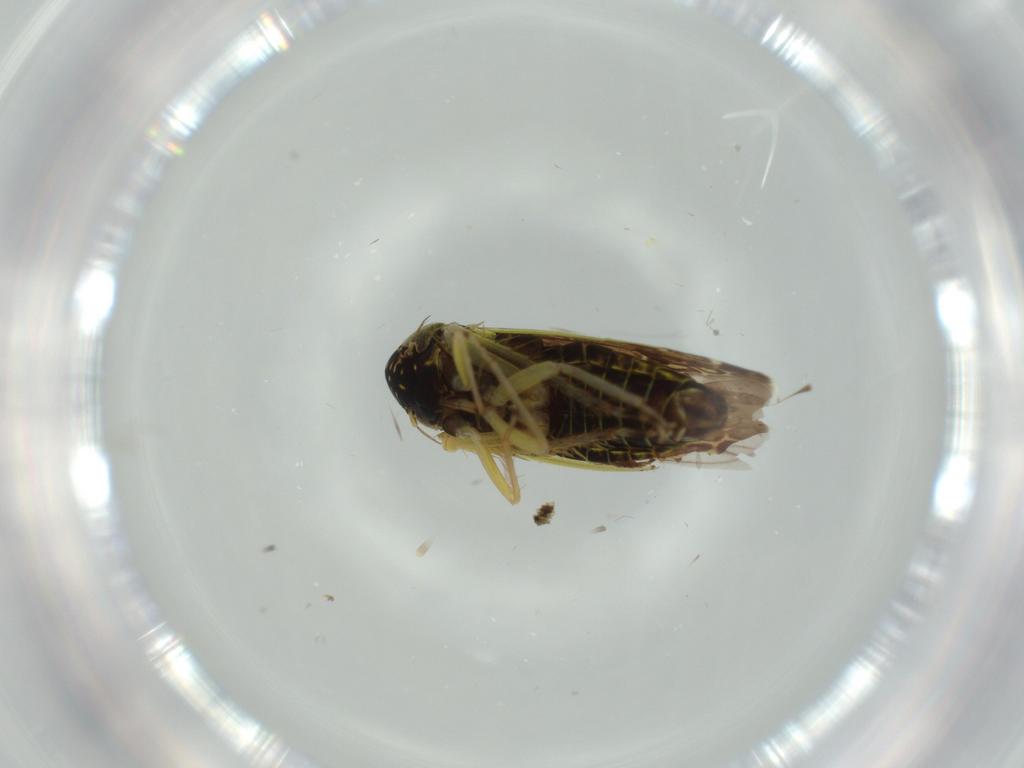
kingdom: Animalia
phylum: Arthropoda
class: Insecta
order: Hemiptera
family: Cicadellidae
